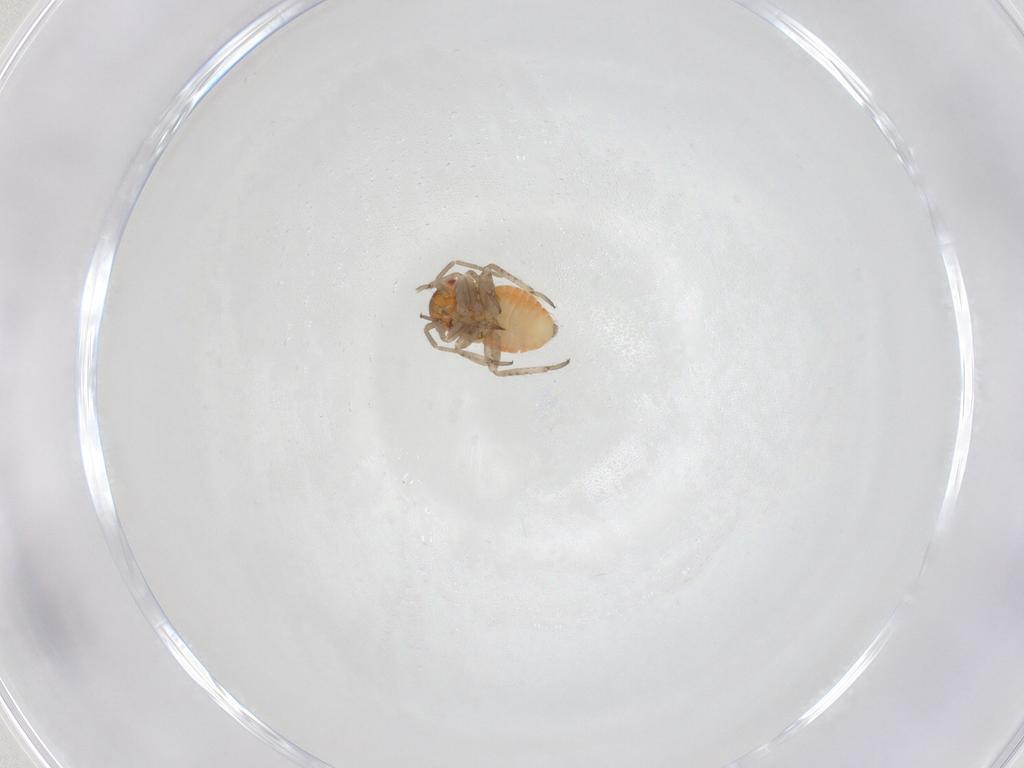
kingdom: Animalia
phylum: Arthropoda
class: Insecta
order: Hemiptera
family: Miridae
